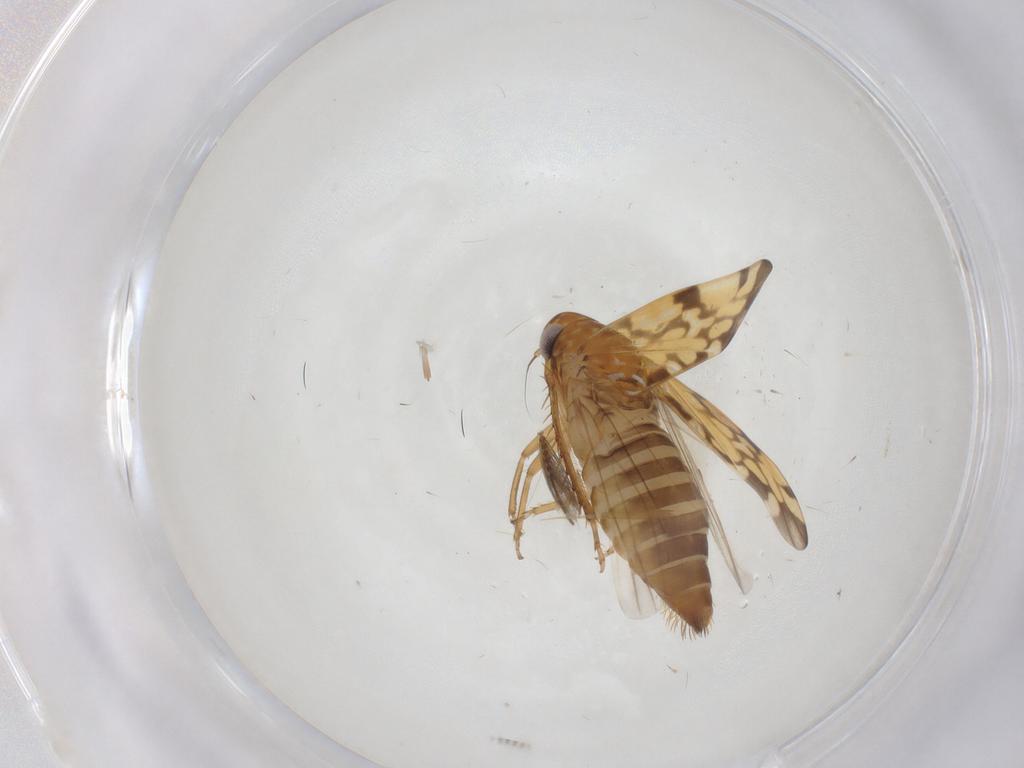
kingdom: Animalia
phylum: Arthropoda
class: Insecta
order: Hemiptera
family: Cicadellidae
